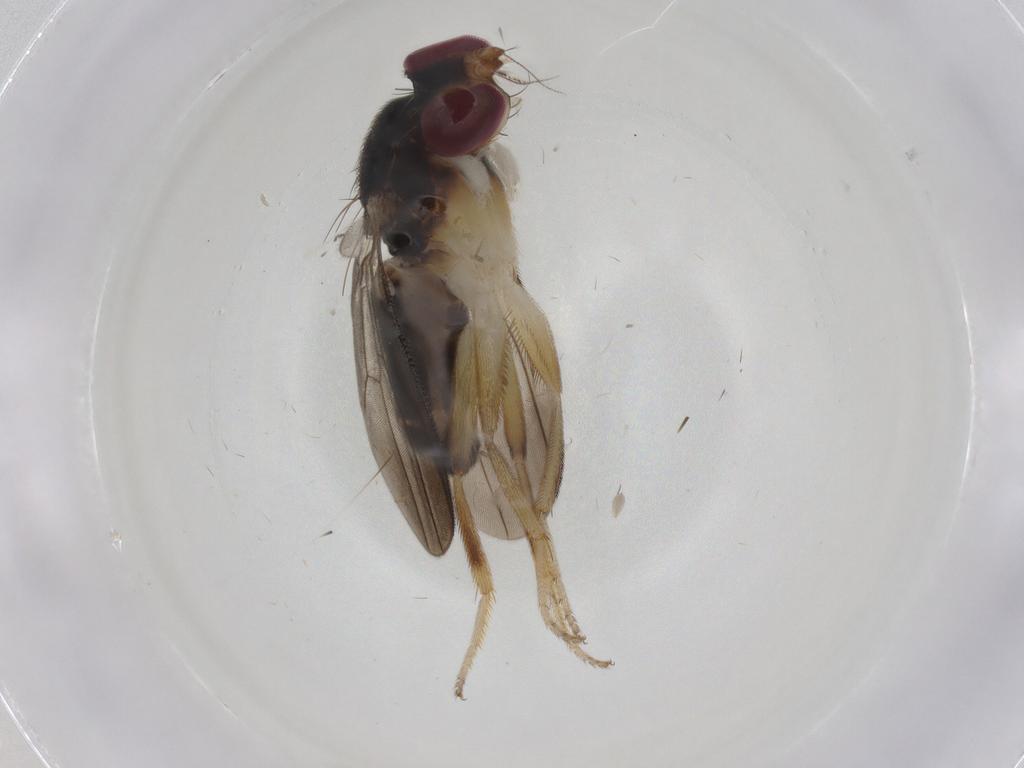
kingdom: Animalia
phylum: Arthropoda
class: Insecta
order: Diptera
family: Clusiidae
